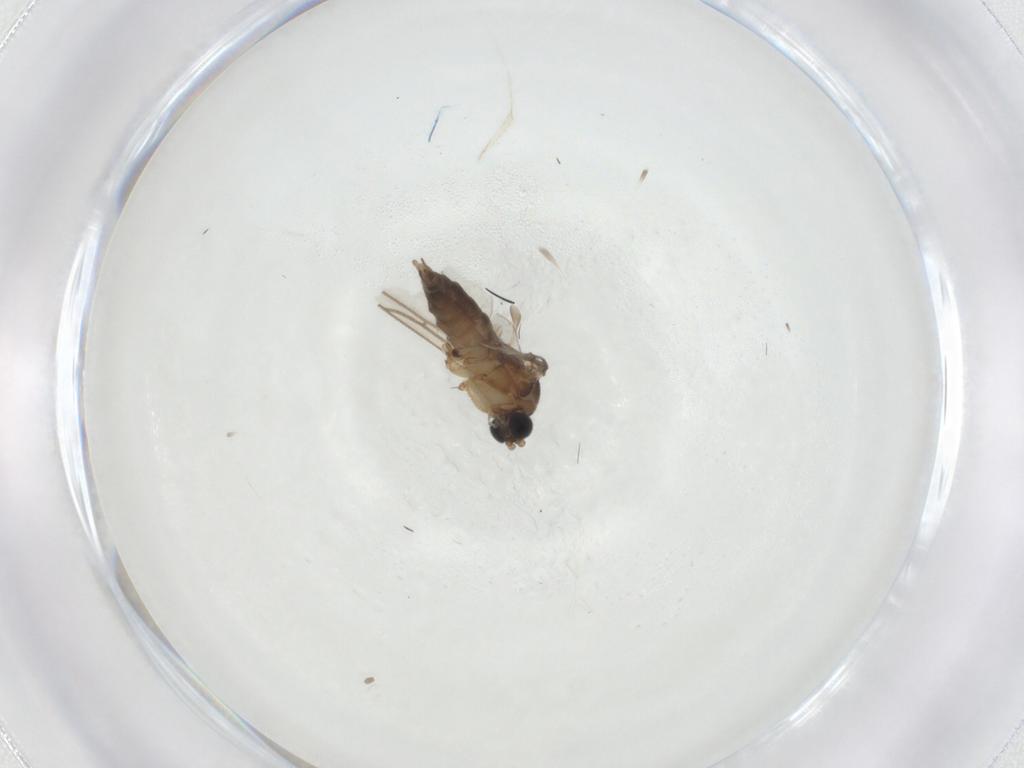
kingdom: Animalia
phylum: Arthropoda
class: Insecta
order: Diptera
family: Sciaridae
